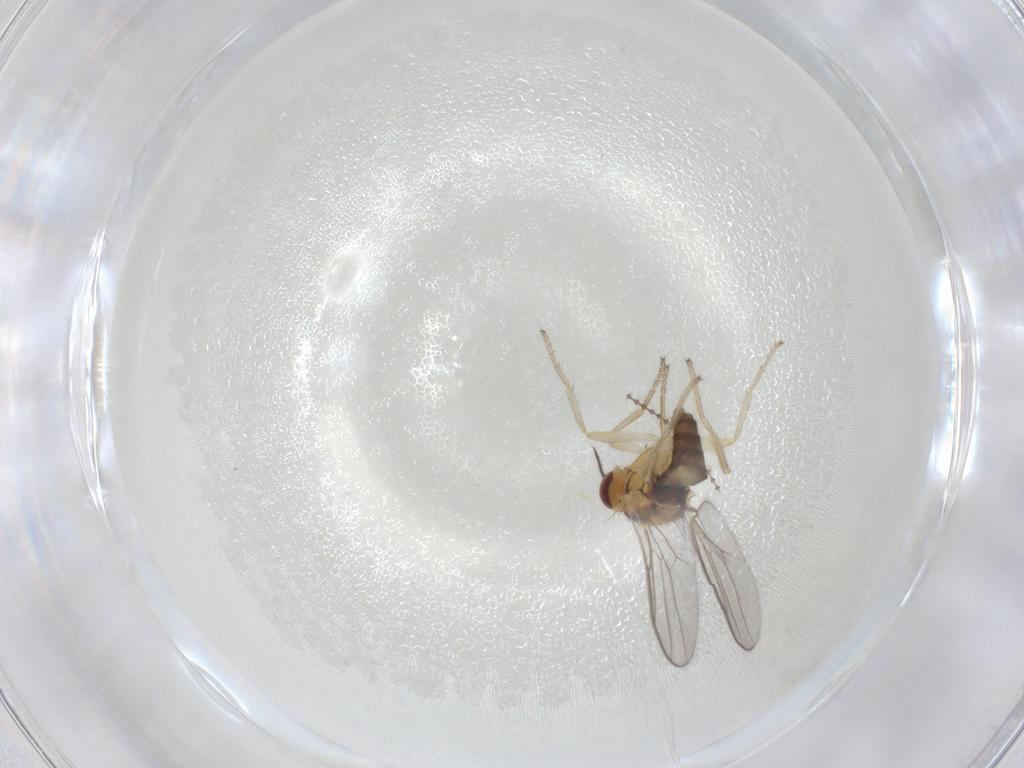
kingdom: Animalia
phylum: Arthropoda
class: Insecta
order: Diptera
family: Chloropidae
